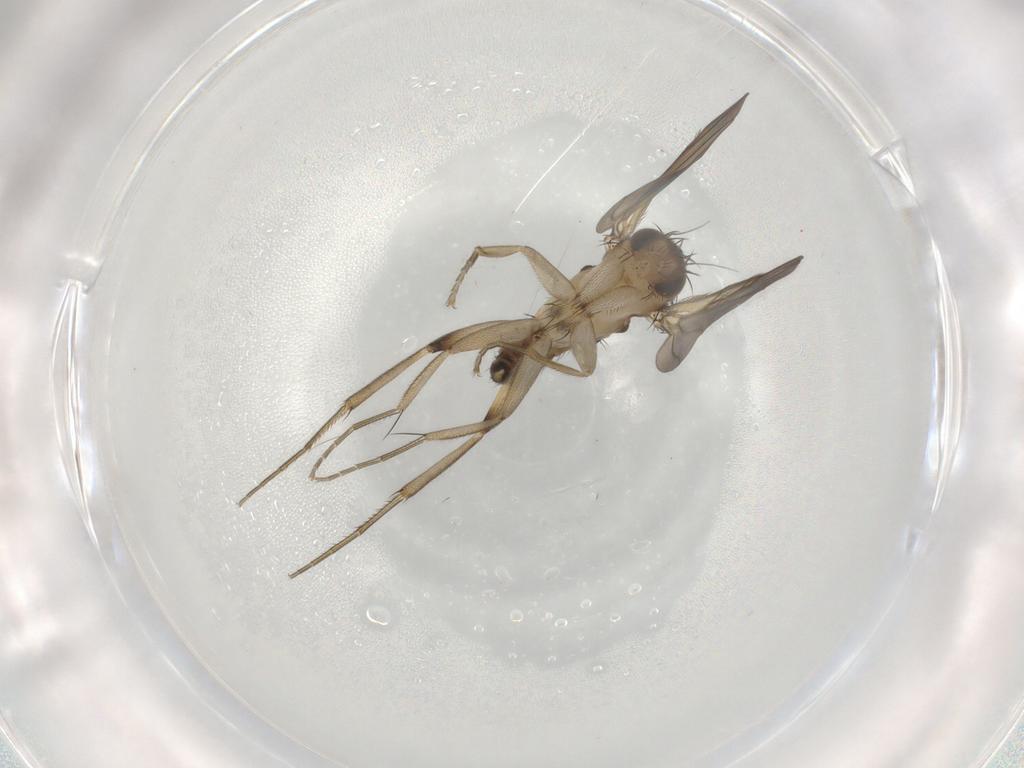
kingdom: Animalia
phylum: Arthropoda
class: Insecta
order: Diptera
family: Phoridae
